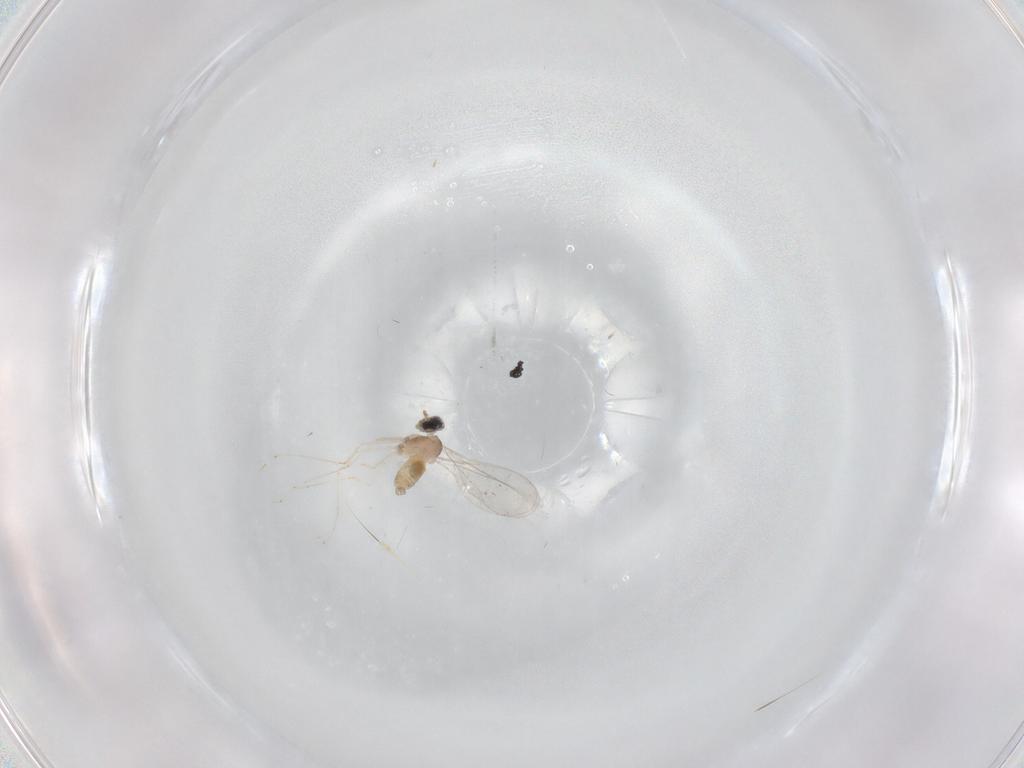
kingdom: Animalia
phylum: Arthropoda
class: Insecta
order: Diptera
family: Cecidomyiidae
